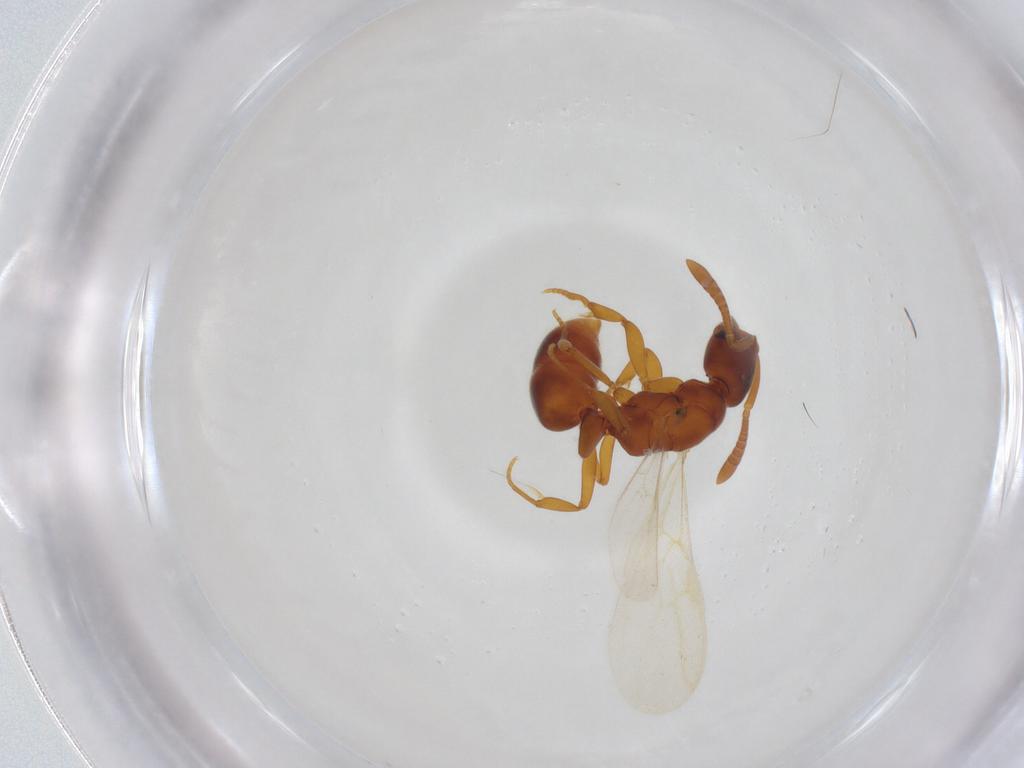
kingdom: Animalia
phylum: Arthropoda
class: Insecta
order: Hymenoptera
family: Formicidae
